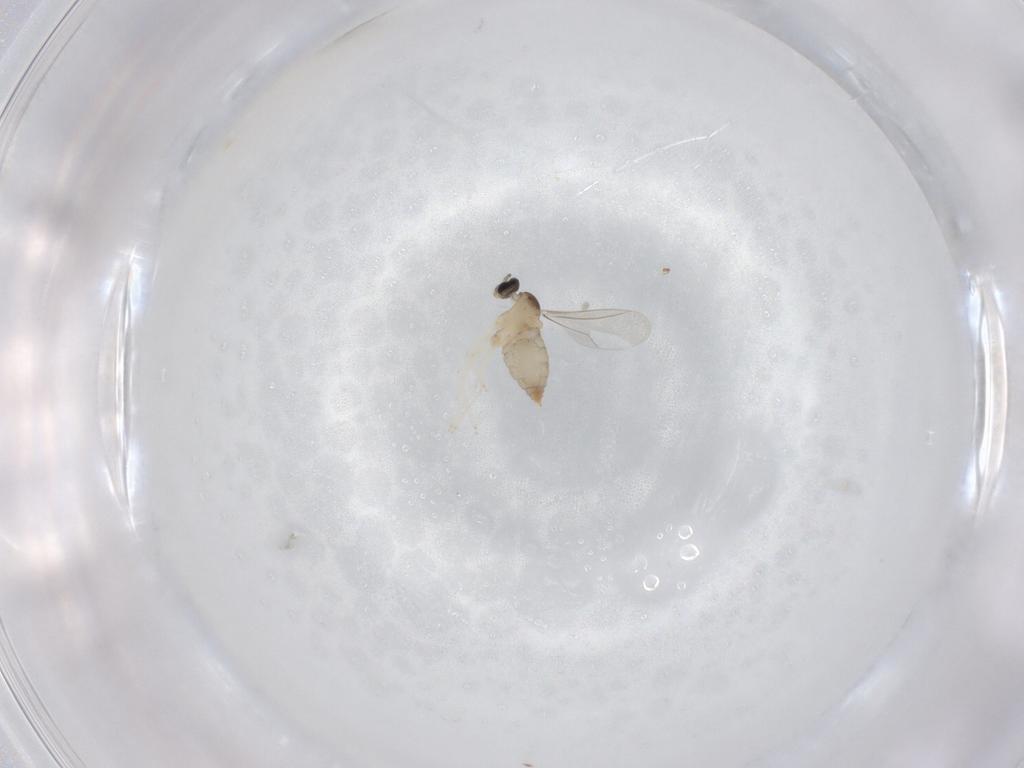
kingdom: Animalia
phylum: Arthropoda
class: Insecta
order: Diptera
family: Cecidomyiidae
